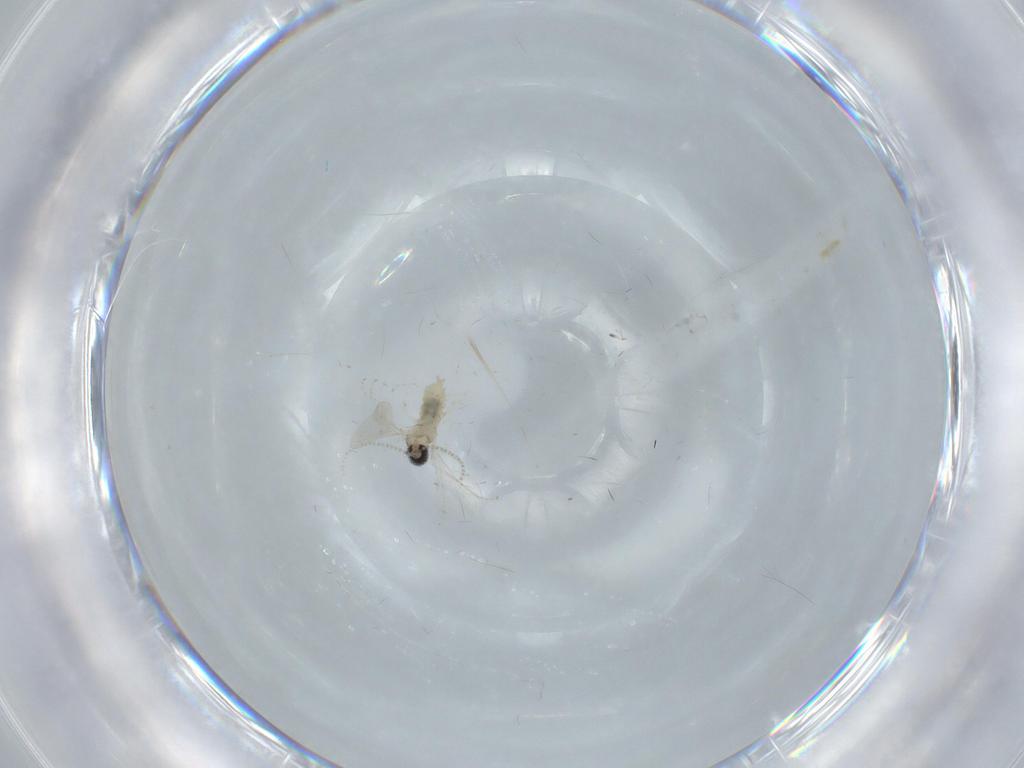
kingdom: Animalia
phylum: Arthropoda
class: Insecta
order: Diptera
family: Cecidomyiidae
